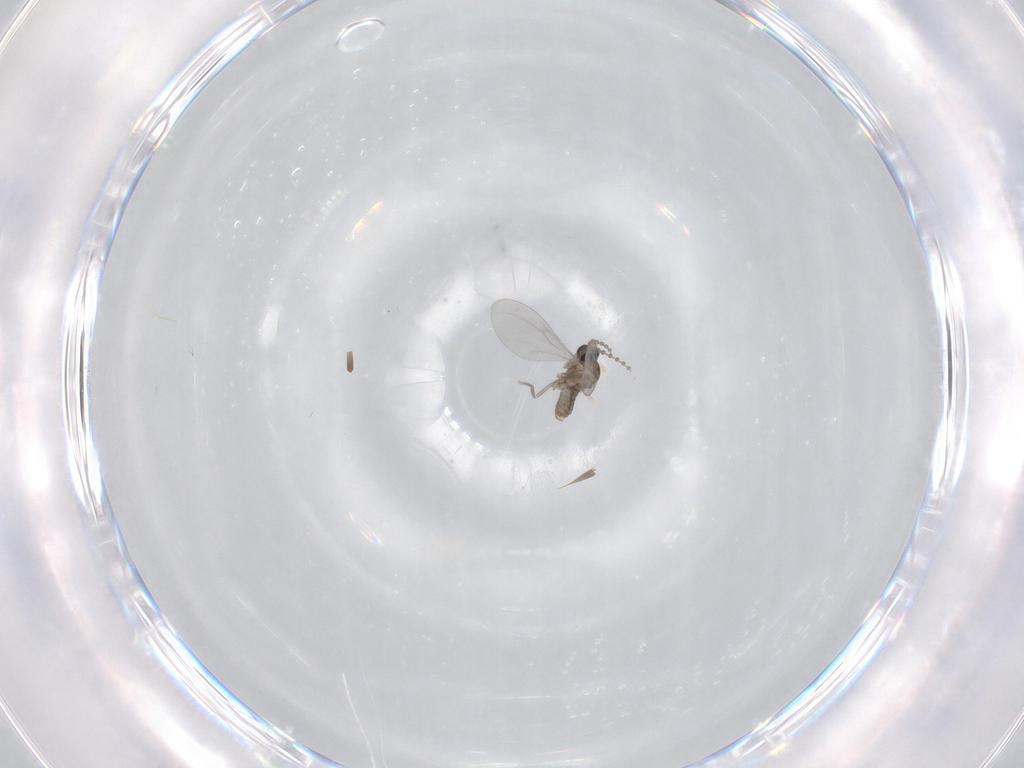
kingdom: Animalia
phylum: Arthropoda
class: Insecta
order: Diptera
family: Cecidomyiidae
